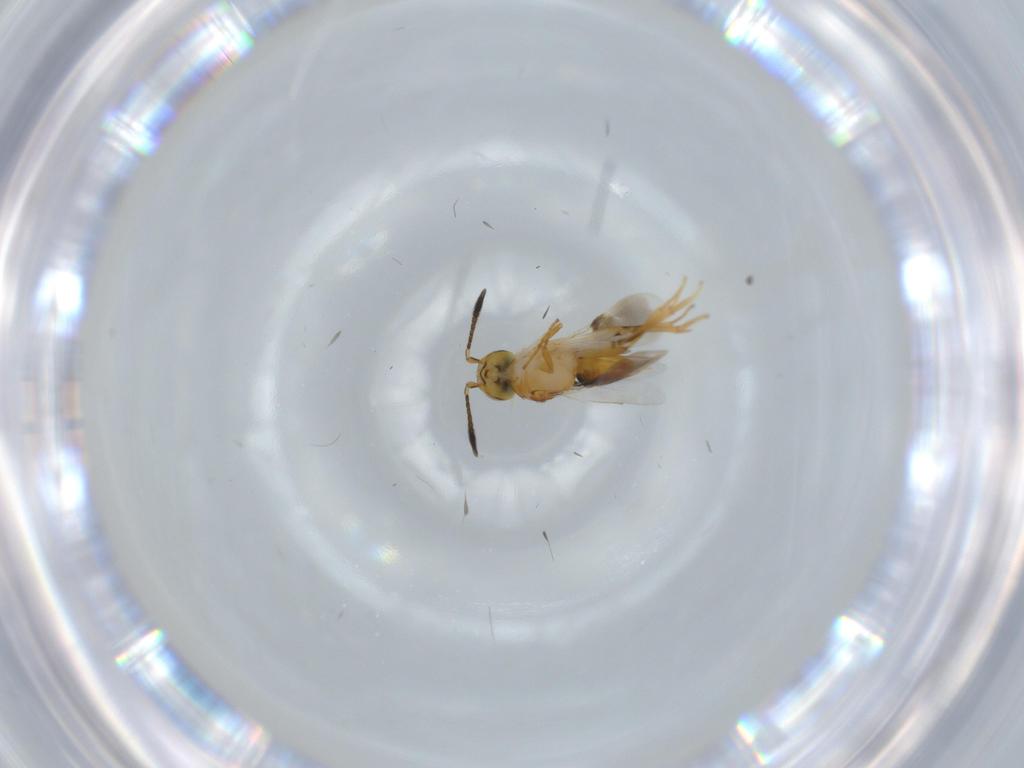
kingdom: Animalia
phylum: Arthropoda
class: Insecta
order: Hymenoptera
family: Encyrtidae
